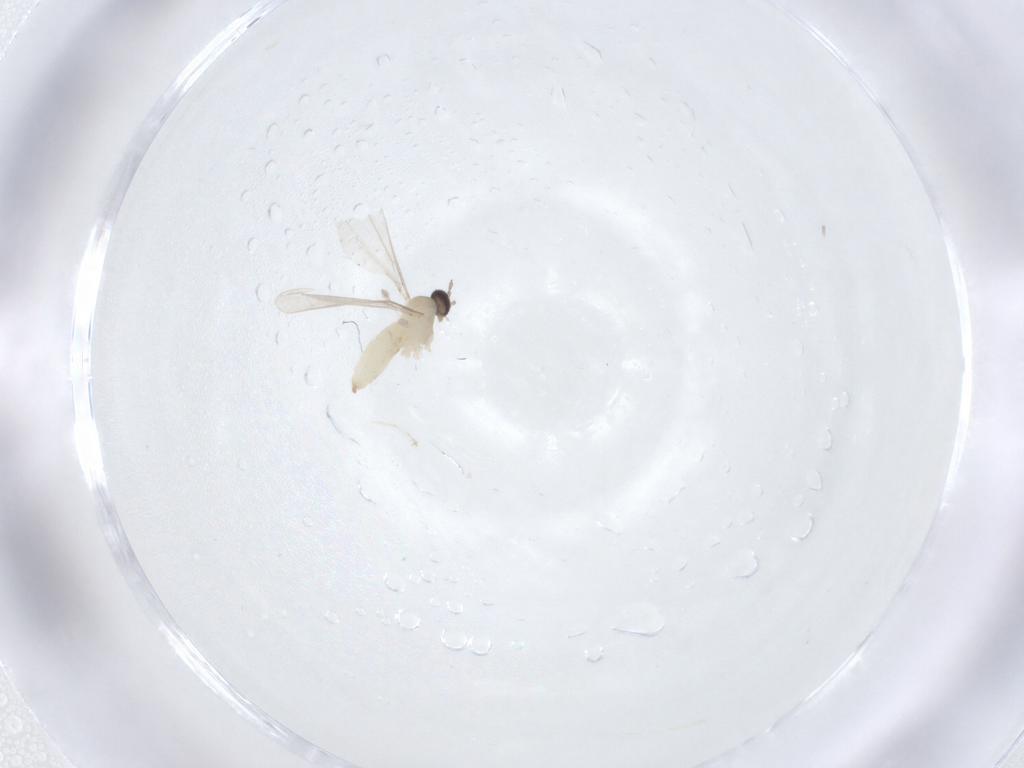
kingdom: Animalia
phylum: Arthropoda
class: Insecta
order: Diptera
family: Cecidomyiidae
